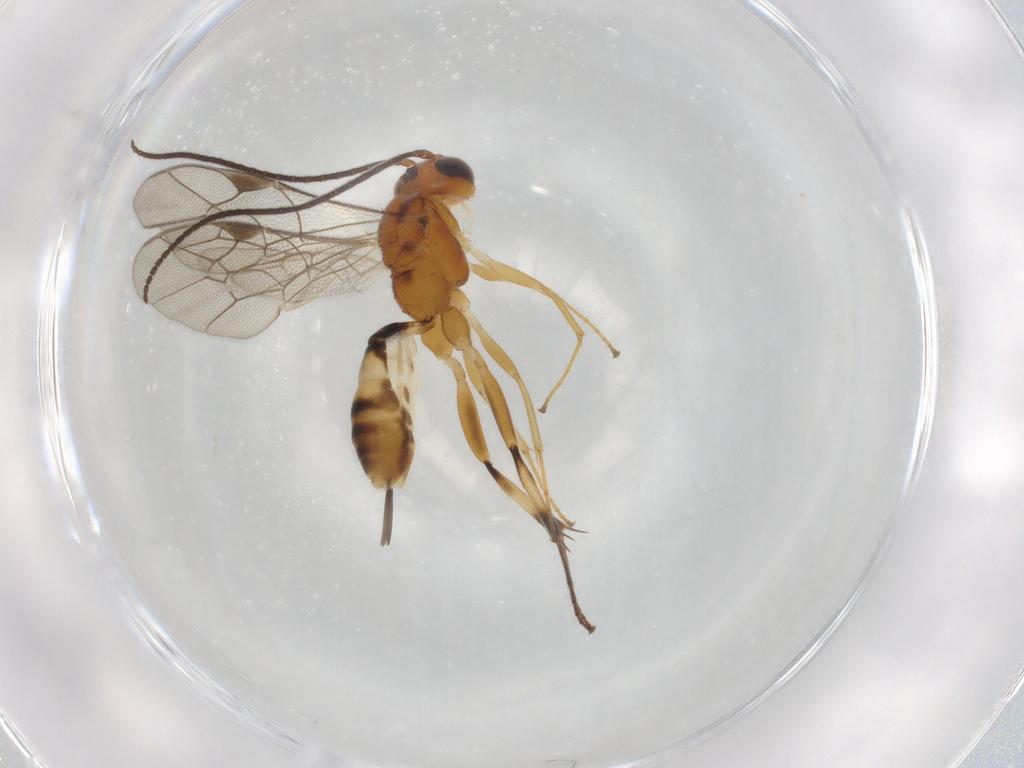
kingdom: Animalia
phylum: Arthropoda
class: Insecta
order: Hymenoptera
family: Ichneumonidae
